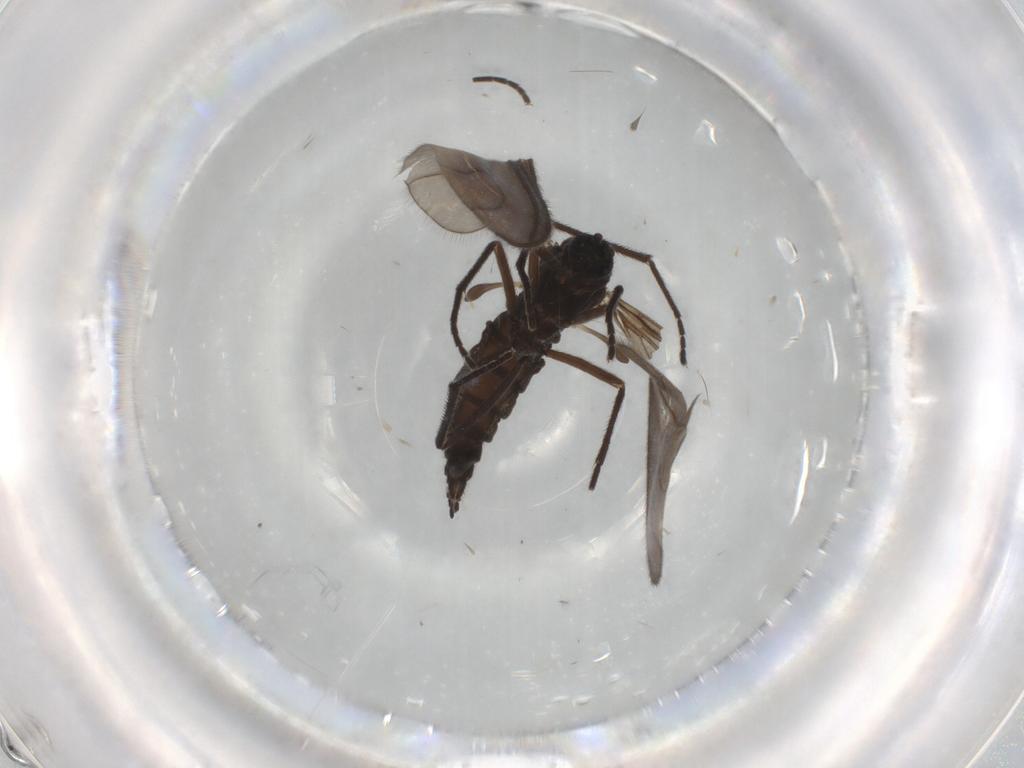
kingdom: Animalia
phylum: Arthropoda
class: Insecta
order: Diptera
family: Sciaridae
